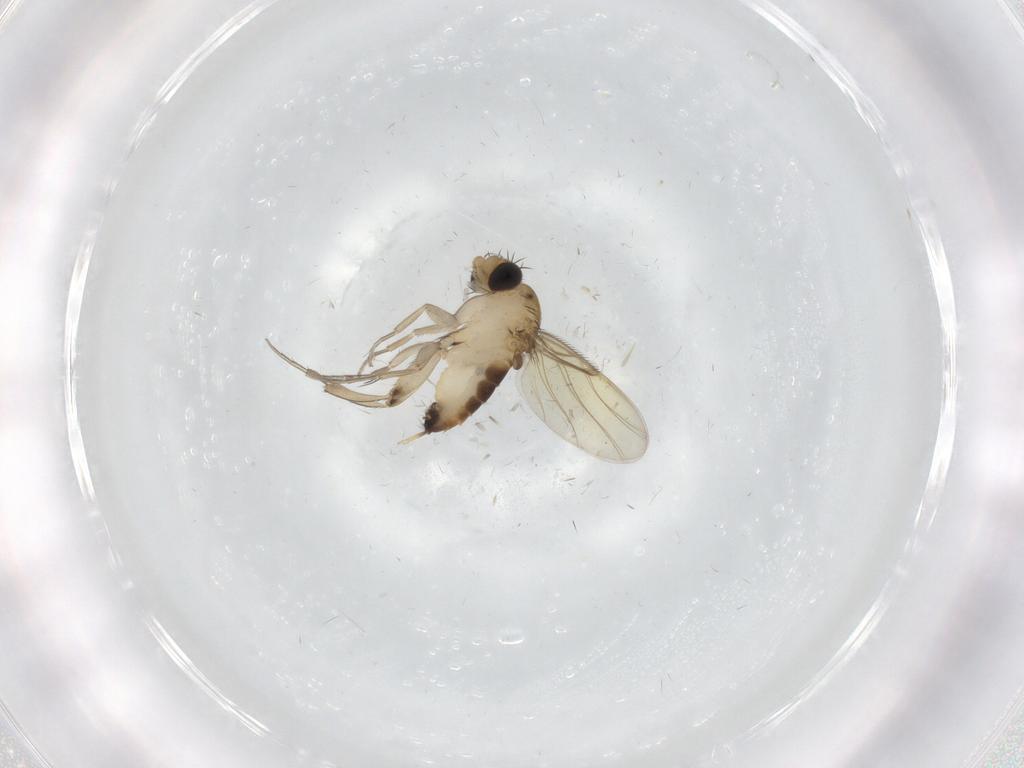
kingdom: Animalia
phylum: Arthropoda
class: Insecta
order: Diptera
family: Phoridae
